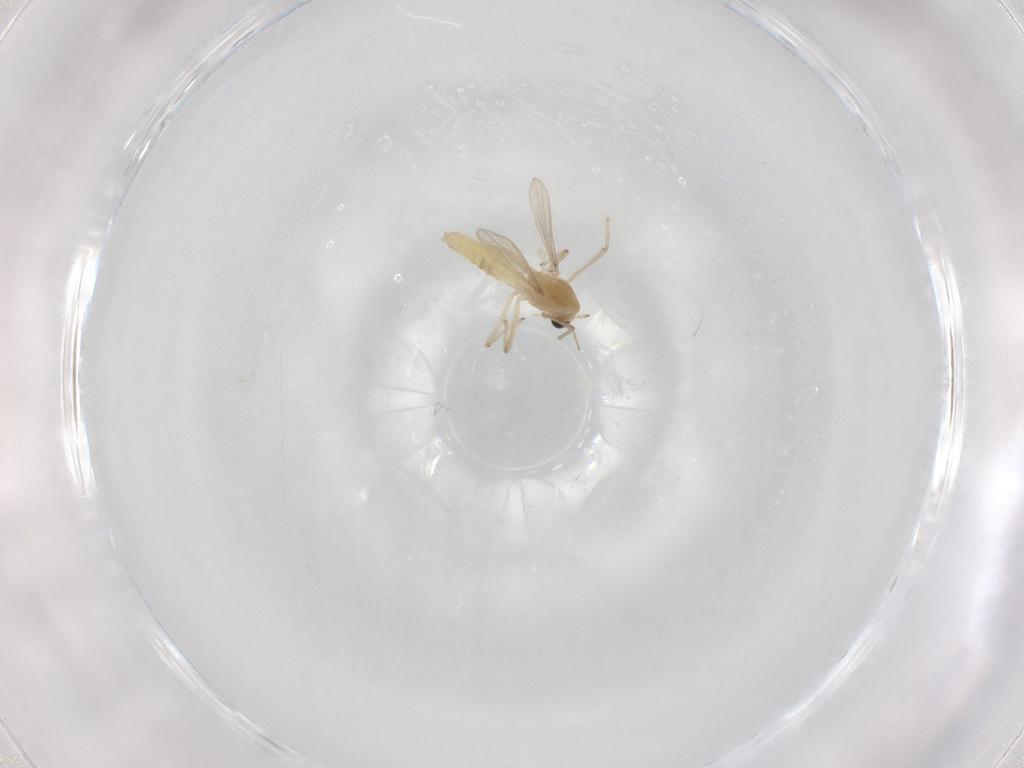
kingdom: Animalia
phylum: Arthropoda
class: Insecta
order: Diptera
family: Chironomidae
